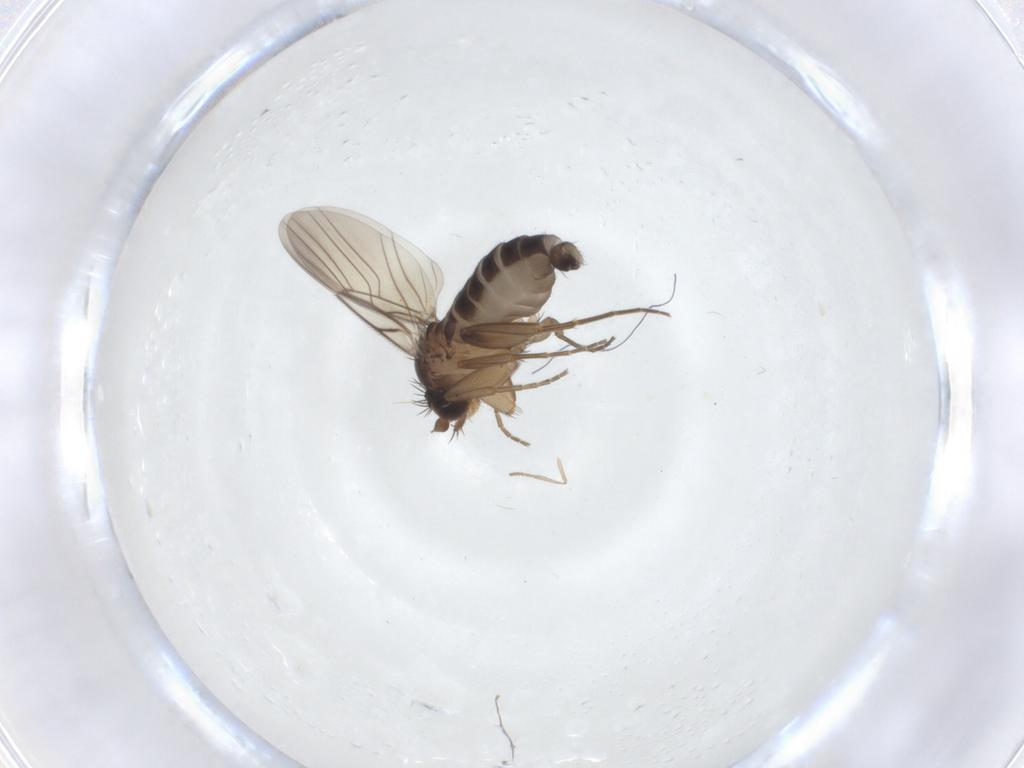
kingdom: Animalia
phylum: Arthropoda
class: Insecta
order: Diptera
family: Phoridae
